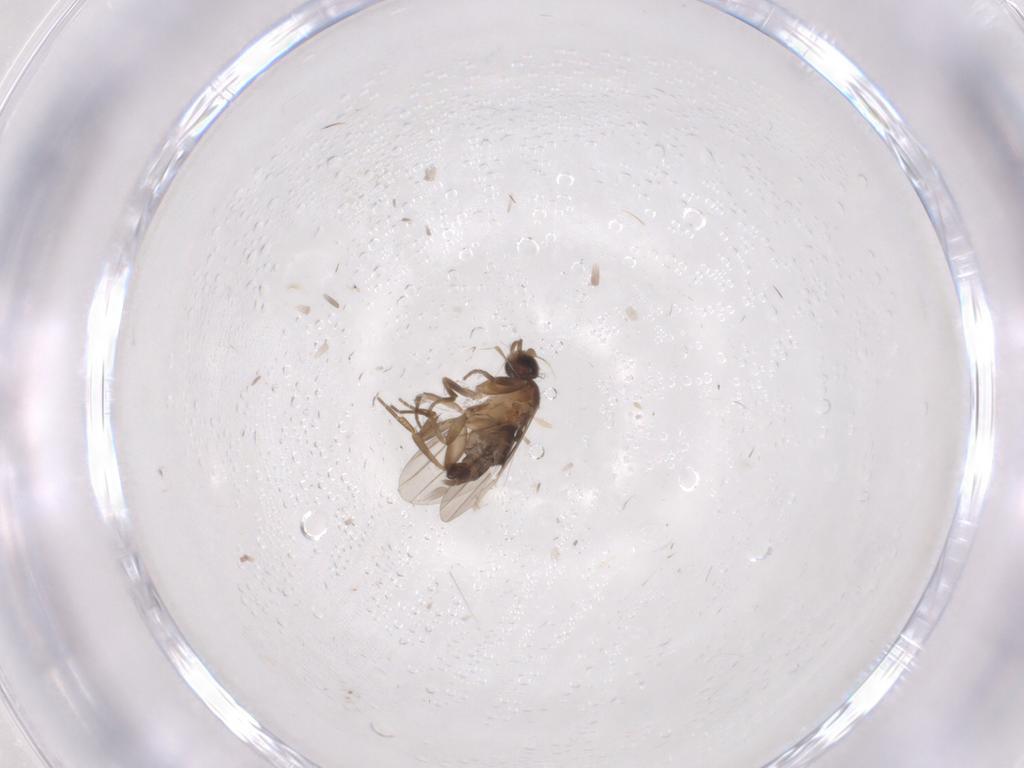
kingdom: Animalia
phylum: Arthropoda
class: Insecta
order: Diptera
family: Phoridae
